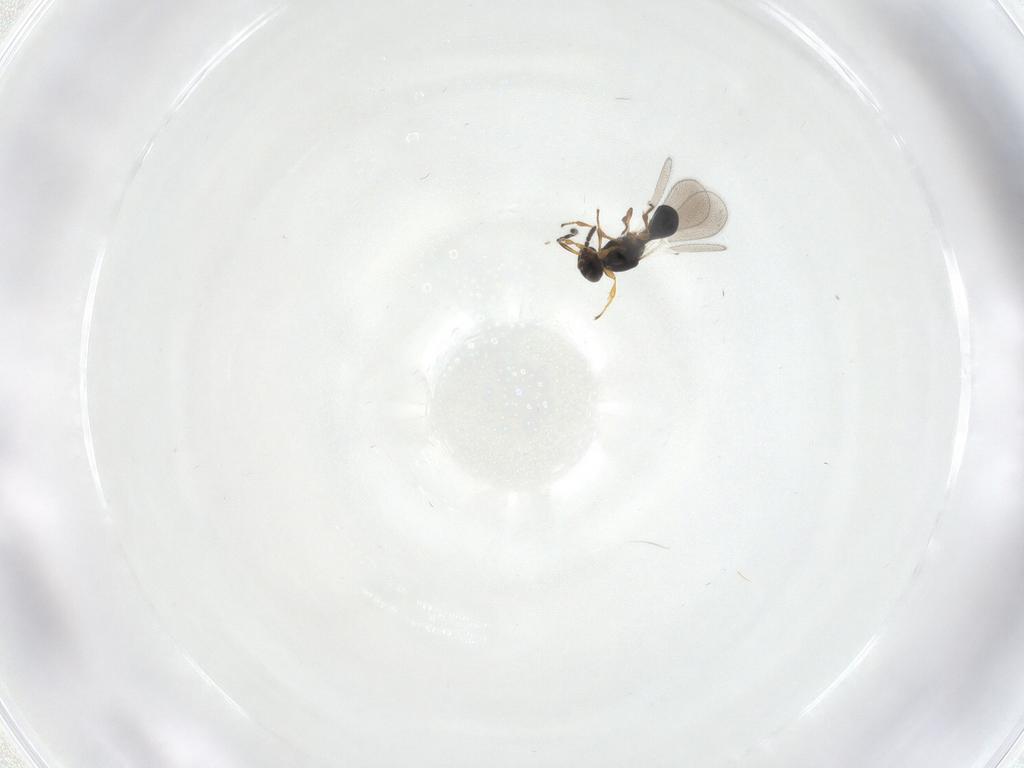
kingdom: Animalia
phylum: Arthropoda
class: Insecta
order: Hymenoptera
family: Platygastridae
